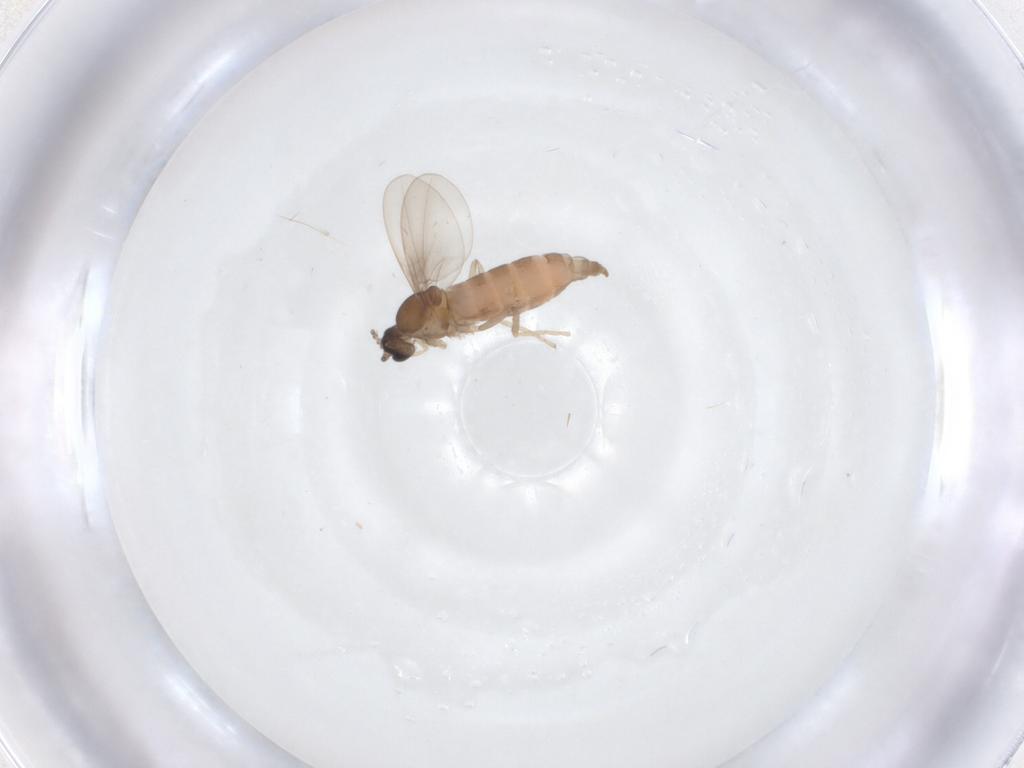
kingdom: Animalia
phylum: Arthropoda
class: Insecta
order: Diptera
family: Cecidomyiidae
